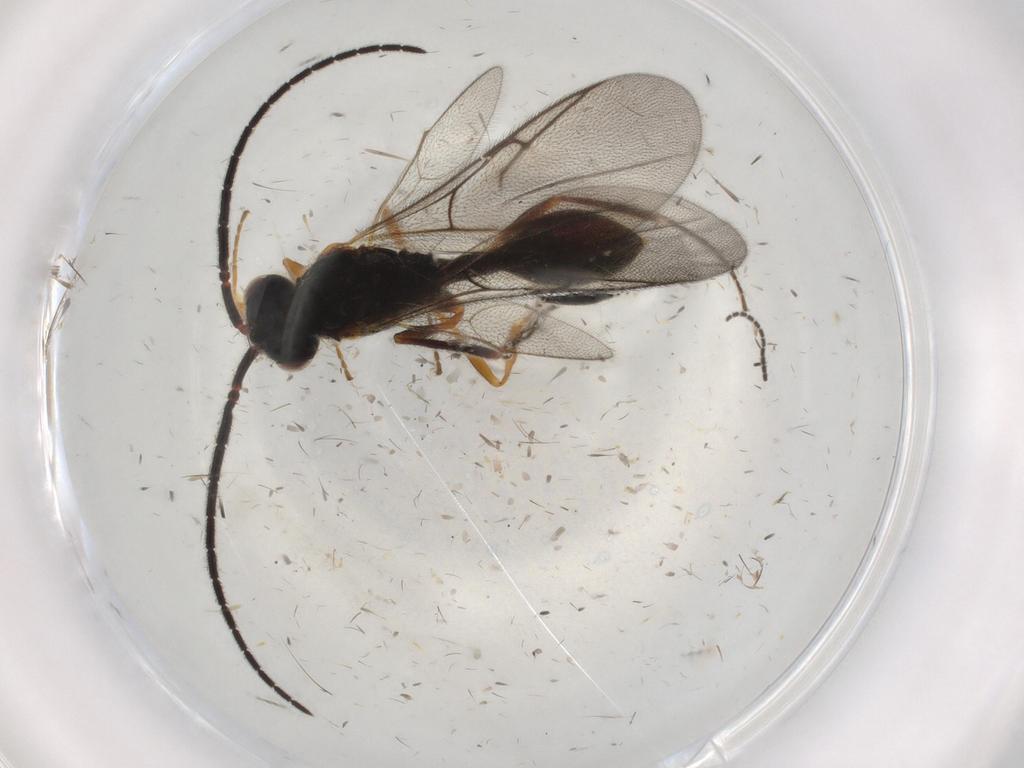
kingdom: Animalia
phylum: Arthropoda
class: Insecta
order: Hymenoptera
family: Diapriidae
